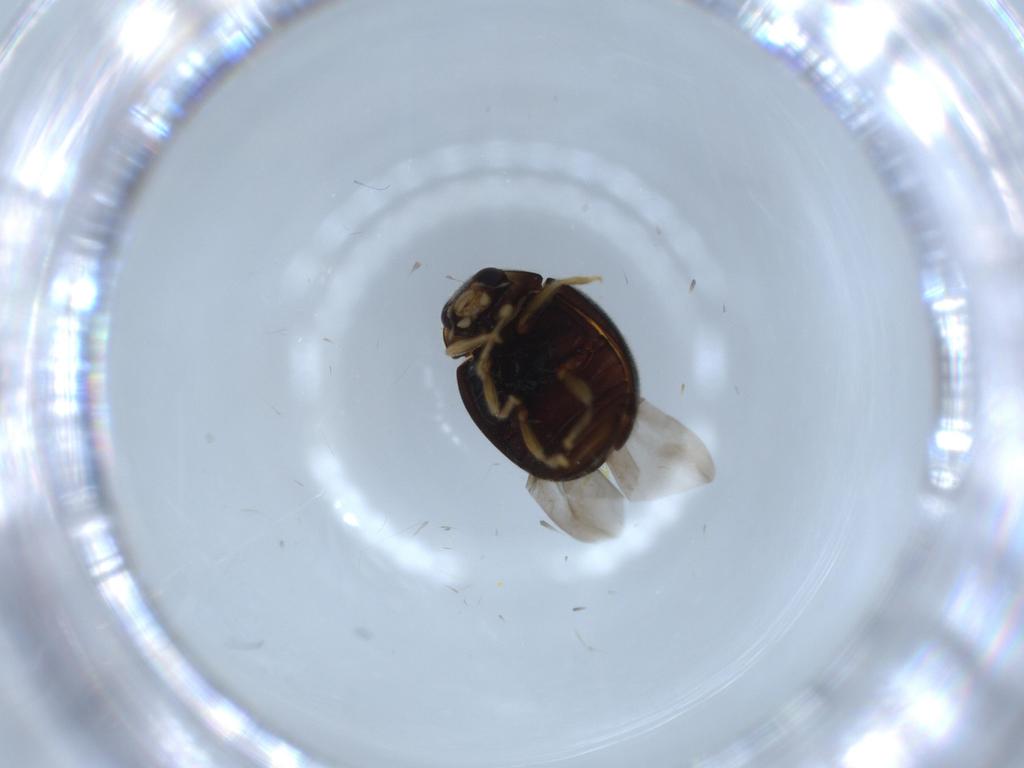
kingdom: Animalia
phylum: Arthropoda
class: Insecta
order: Coleoptera
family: Coccinellidae
